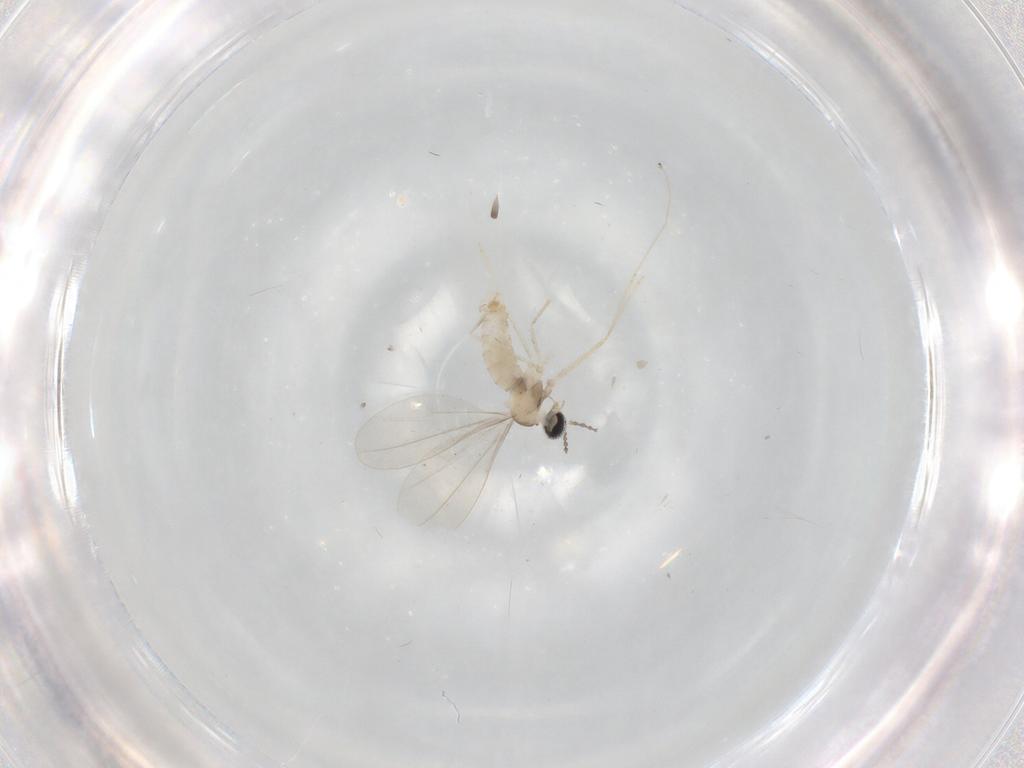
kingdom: Animalia
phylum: Arthropoda
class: Insecta
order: Diptera
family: Cecidomyiidae
